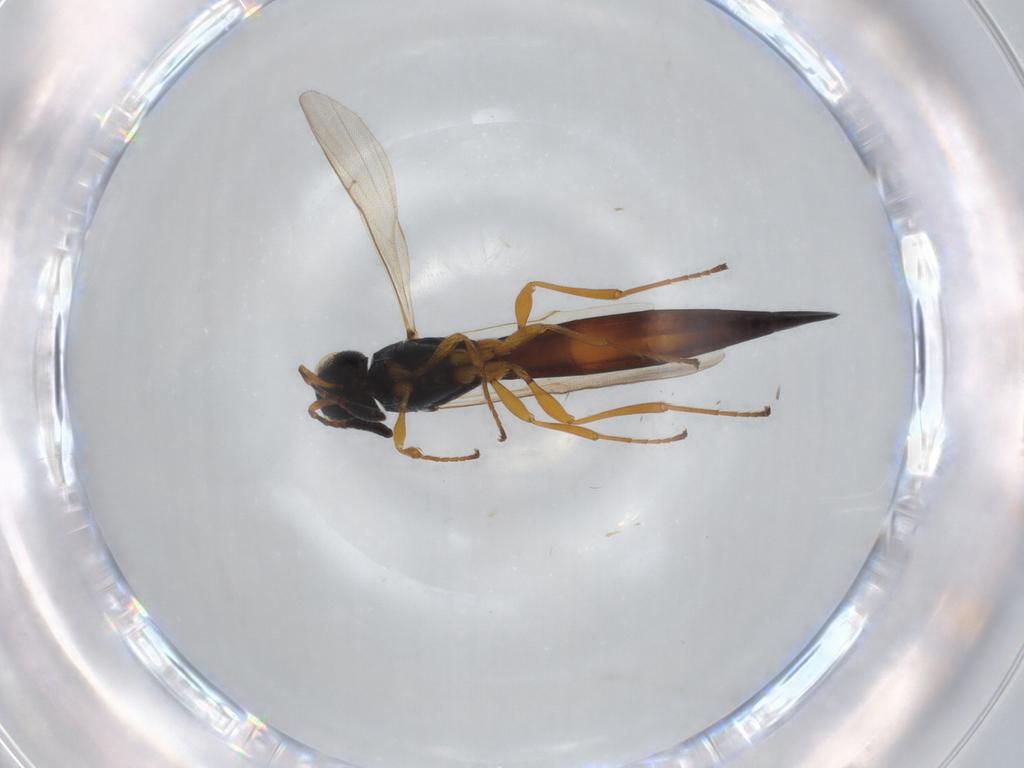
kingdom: Animalia
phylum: Arthropoda
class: Insecta
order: Hymenoptera
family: Scelionidae
